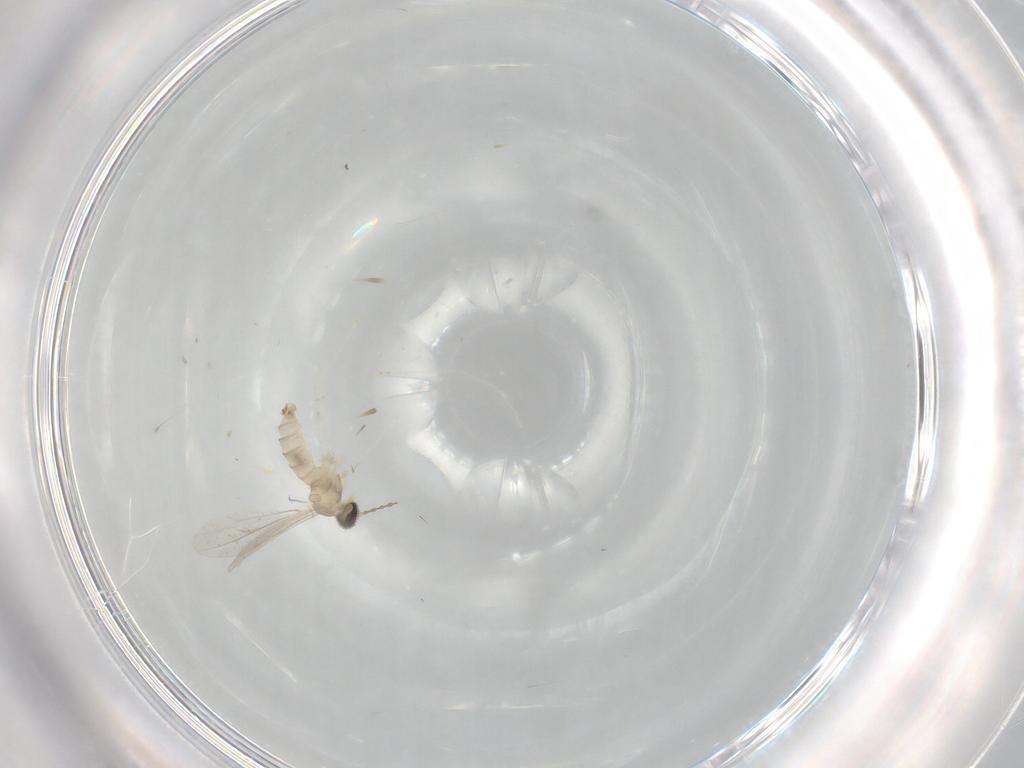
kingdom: Animalia
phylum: Arthropoda
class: Insecta
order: Diptera
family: Cecidomyiidae
